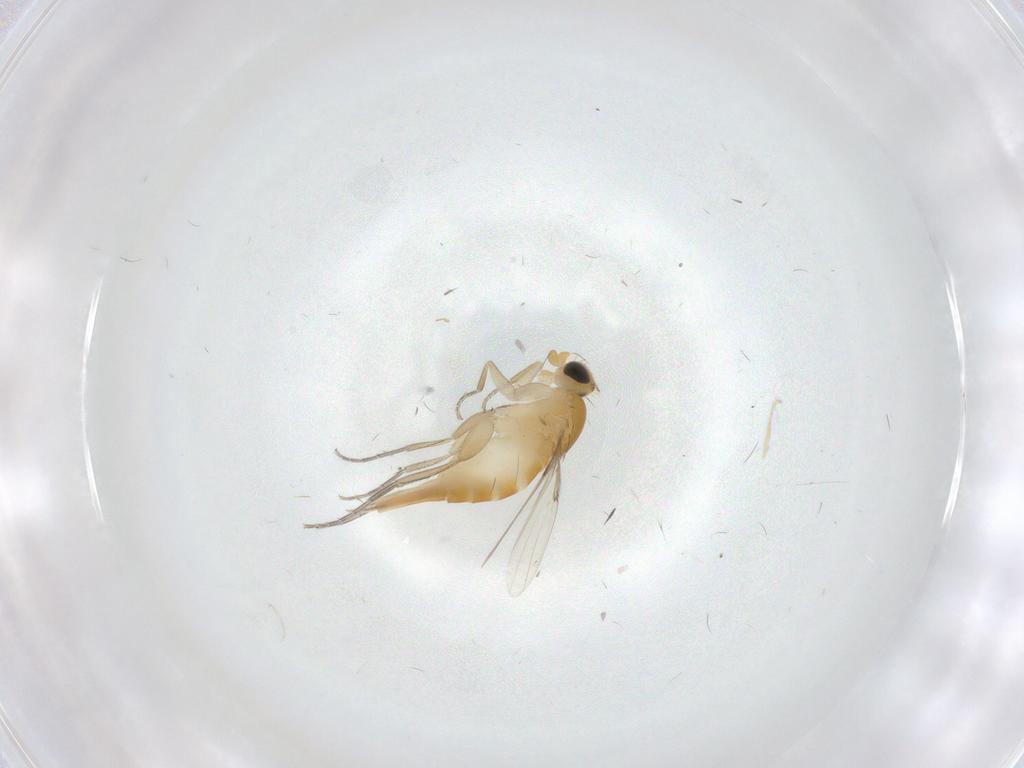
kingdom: Animalia
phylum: Arthropoda
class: Insecta
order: Diptera
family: Phoridae
